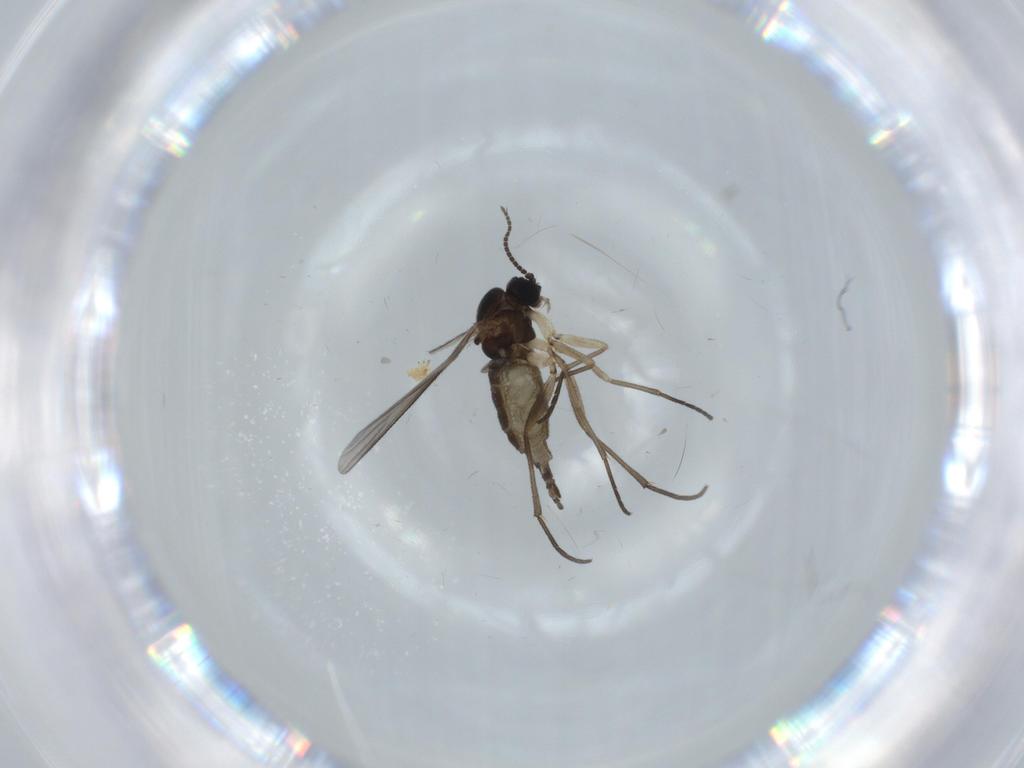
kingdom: Animalia
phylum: Arthropoda
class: Insecta
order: Diptera
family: Sciaridae
